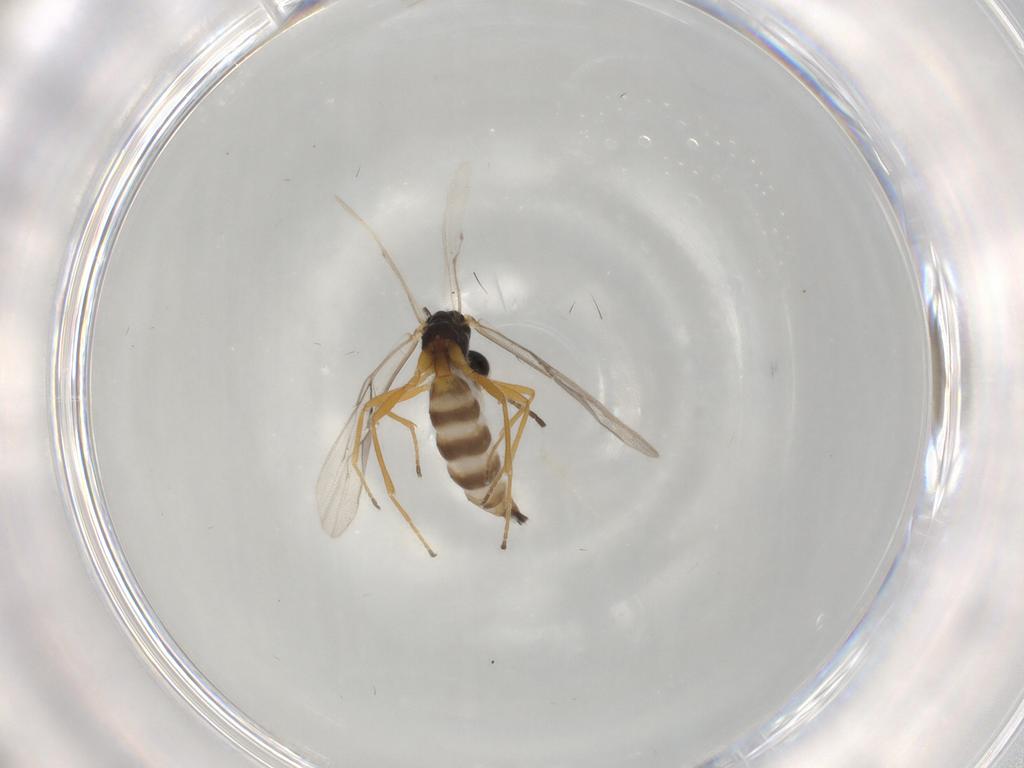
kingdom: Animalia
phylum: Arthropoda
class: Insecta
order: Hymenoptera
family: Braconidae
